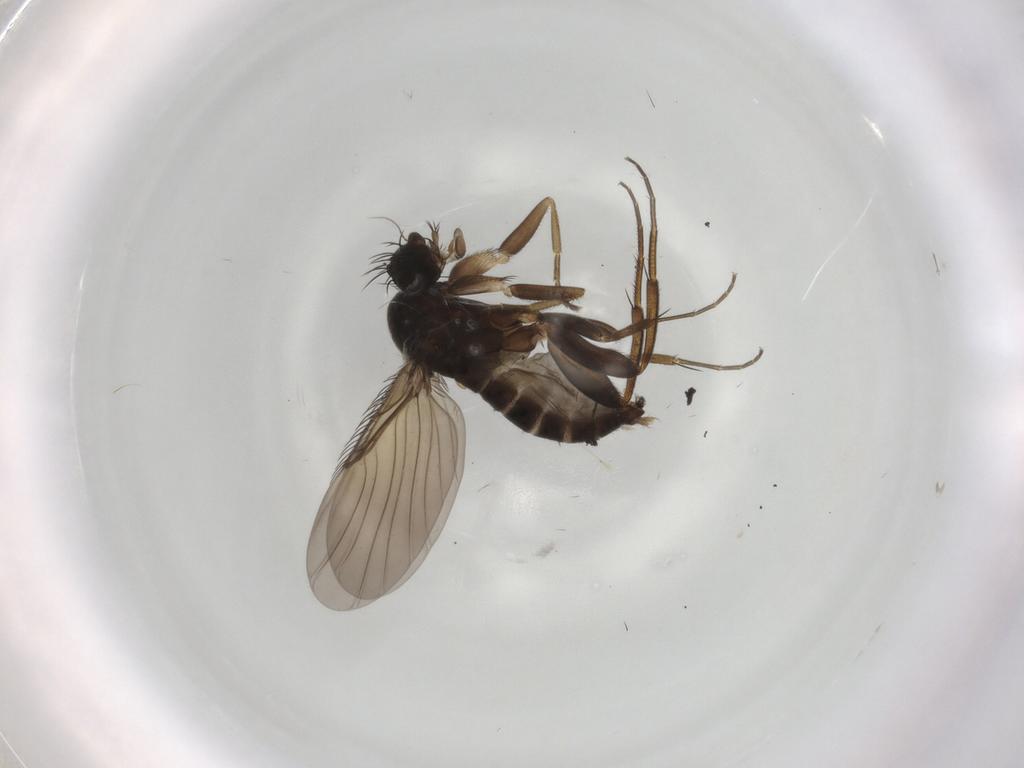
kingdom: Animalia
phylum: Arthropoda
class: Insecta
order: Diptera
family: Phoridae
